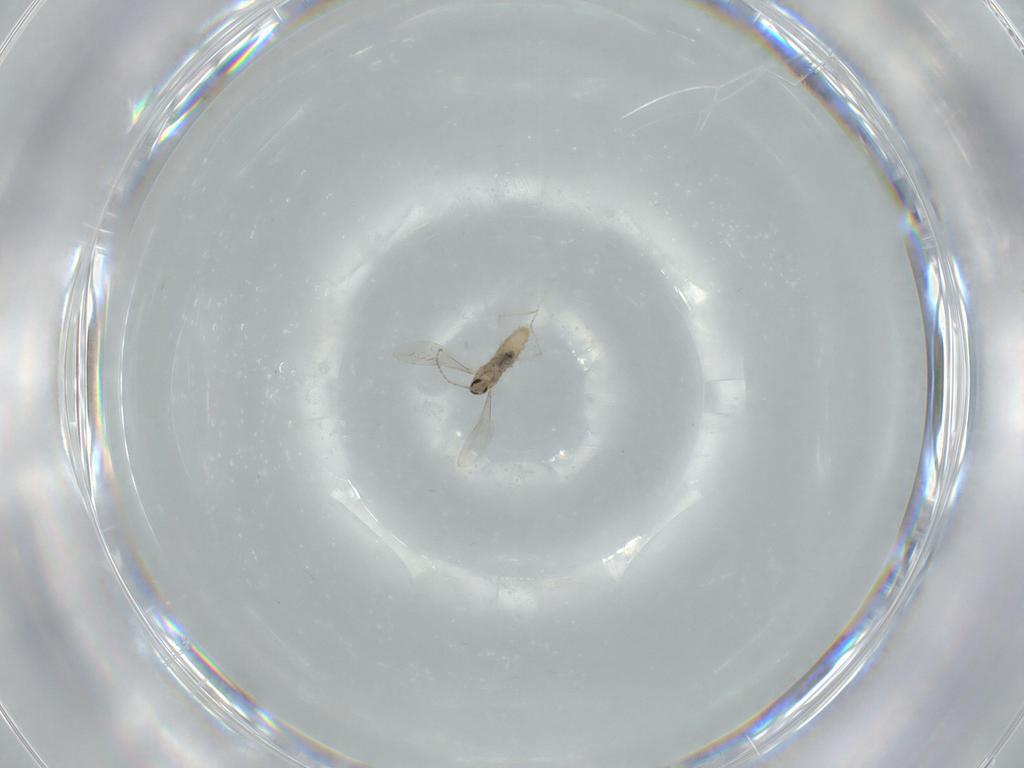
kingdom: Animalia
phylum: Arthropoda
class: Insecta
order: Diptera
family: Cecidomyiidae
